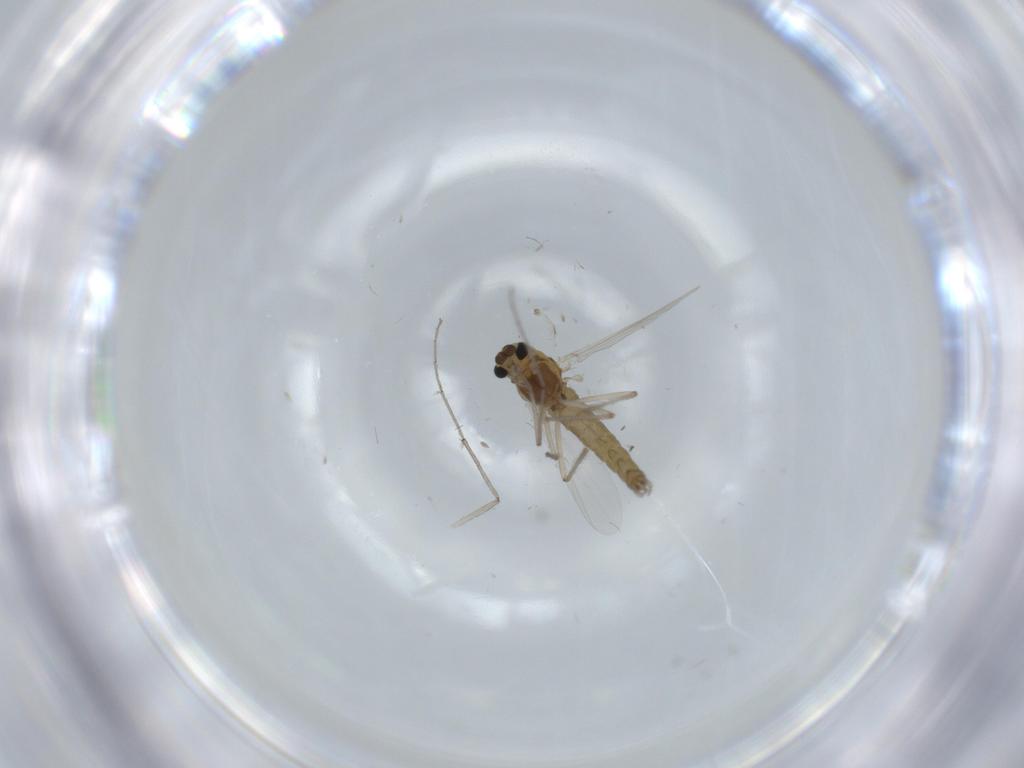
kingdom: Animalia
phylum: Arthropoda
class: Insecta
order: Diptera
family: Chironomidae
